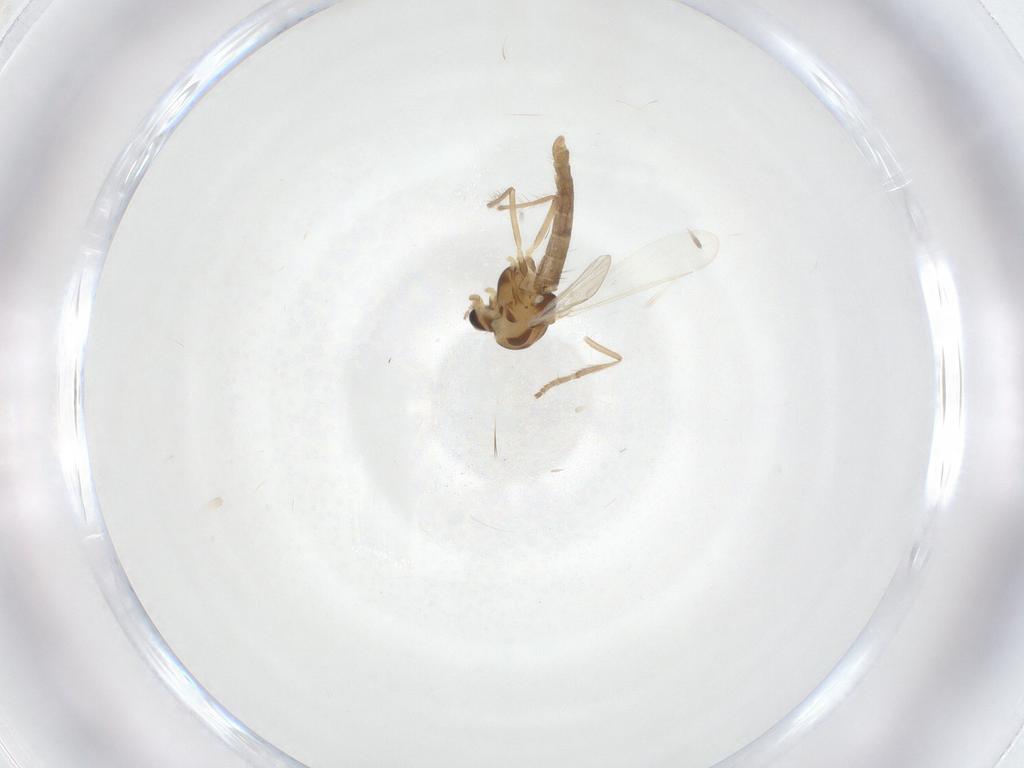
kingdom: Animalia
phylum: Arthropoda
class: Insecta
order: Diptera
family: Chironomidae
